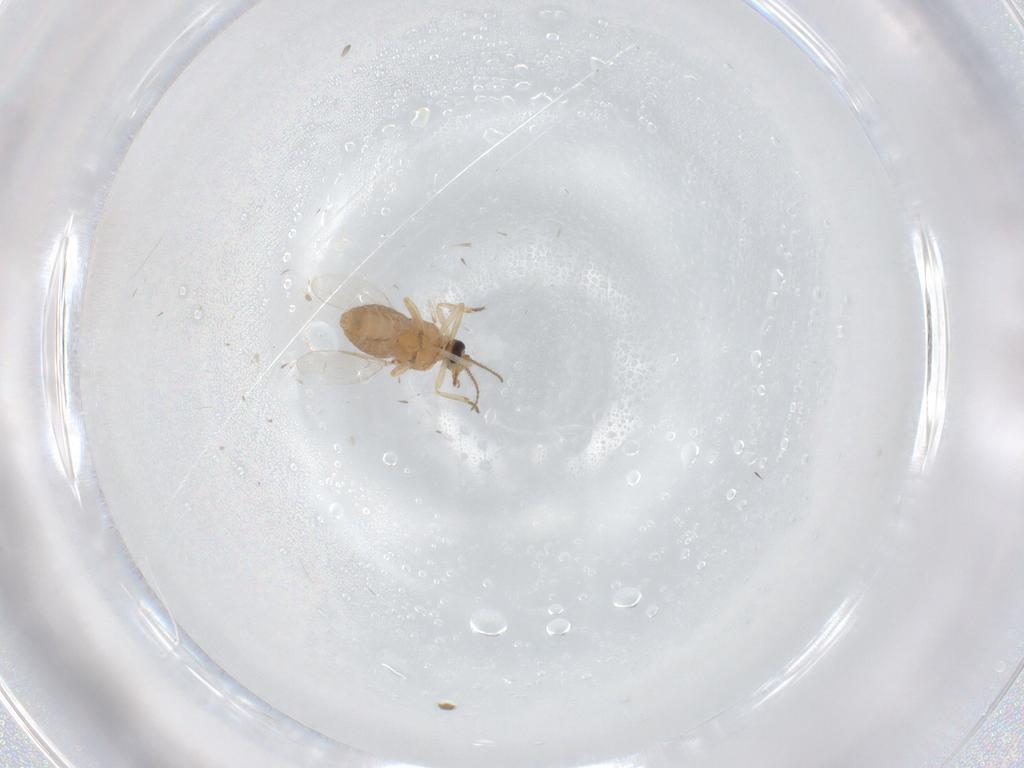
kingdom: Animalia
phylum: Arthropoda
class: Insecta
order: Diptera
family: Ceratopogonidae
